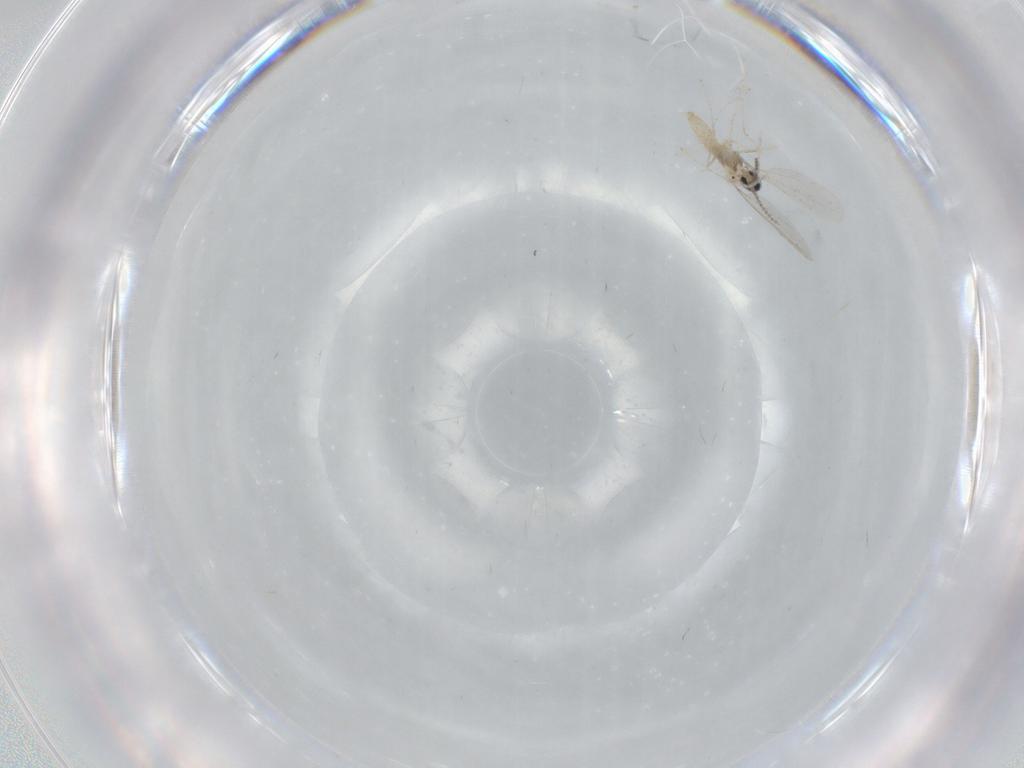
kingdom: Animalia
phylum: Arthropoda
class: Insecta
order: Diptera
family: Cecidomyiidae
